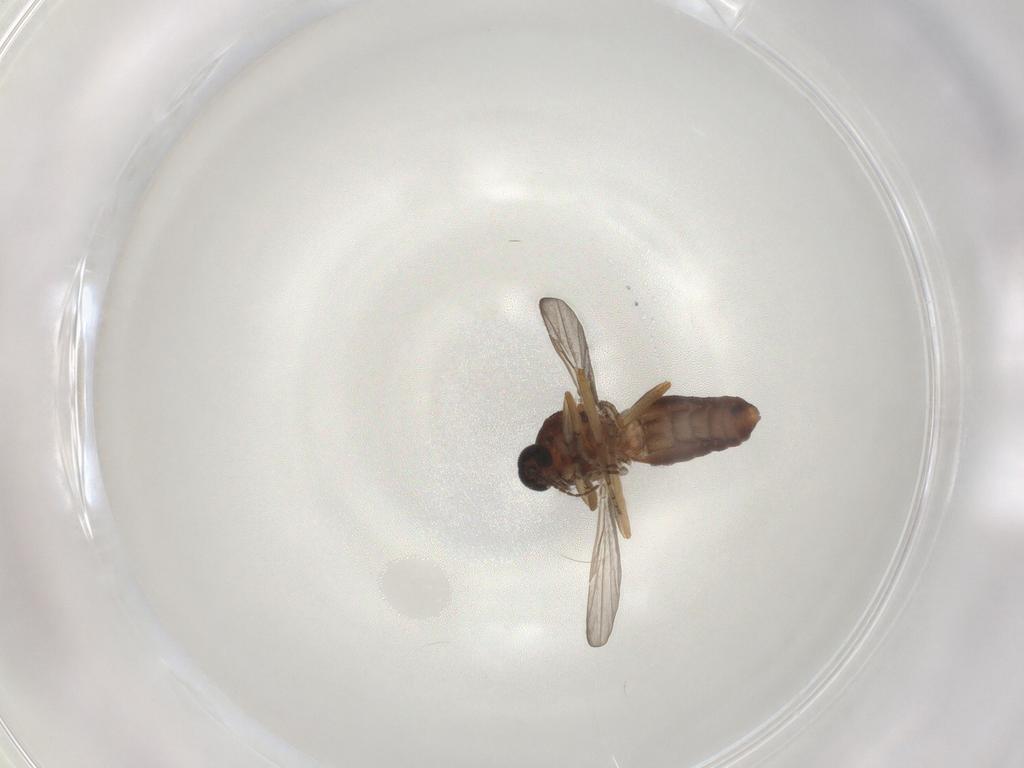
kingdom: Animalia
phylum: Arthropoda
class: Insecta
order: Diptera
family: Ceratopogonidae
